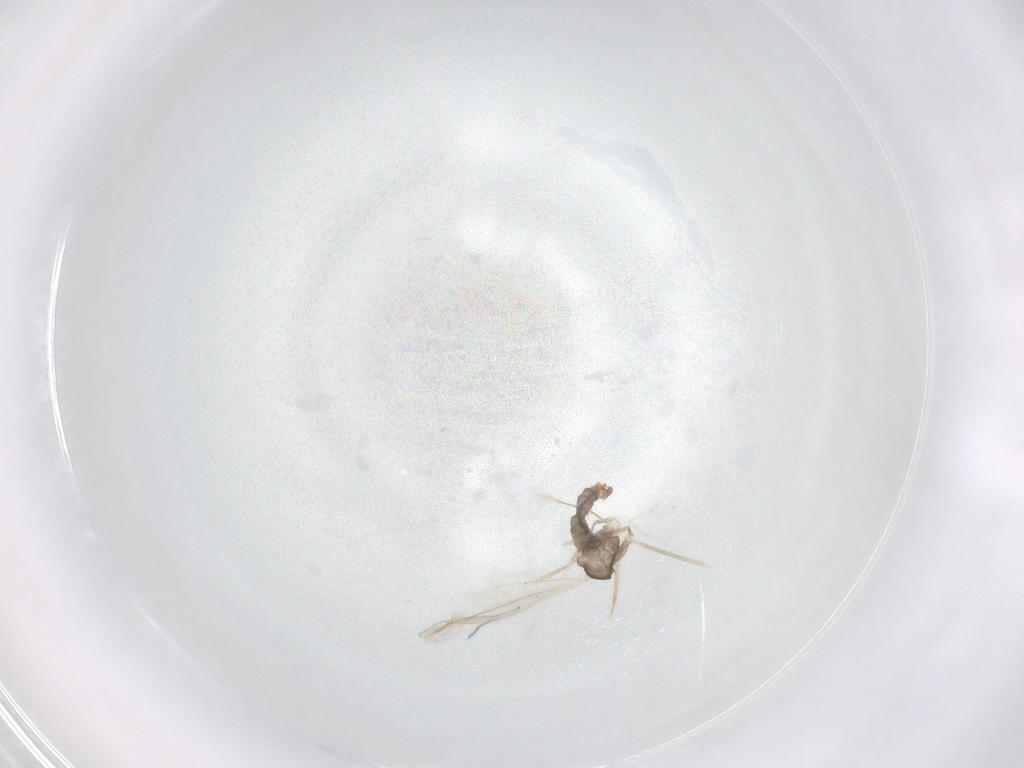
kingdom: Animalia
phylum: Arthropoda
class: Insecta
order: Diptera
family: Cecidomyiidae
